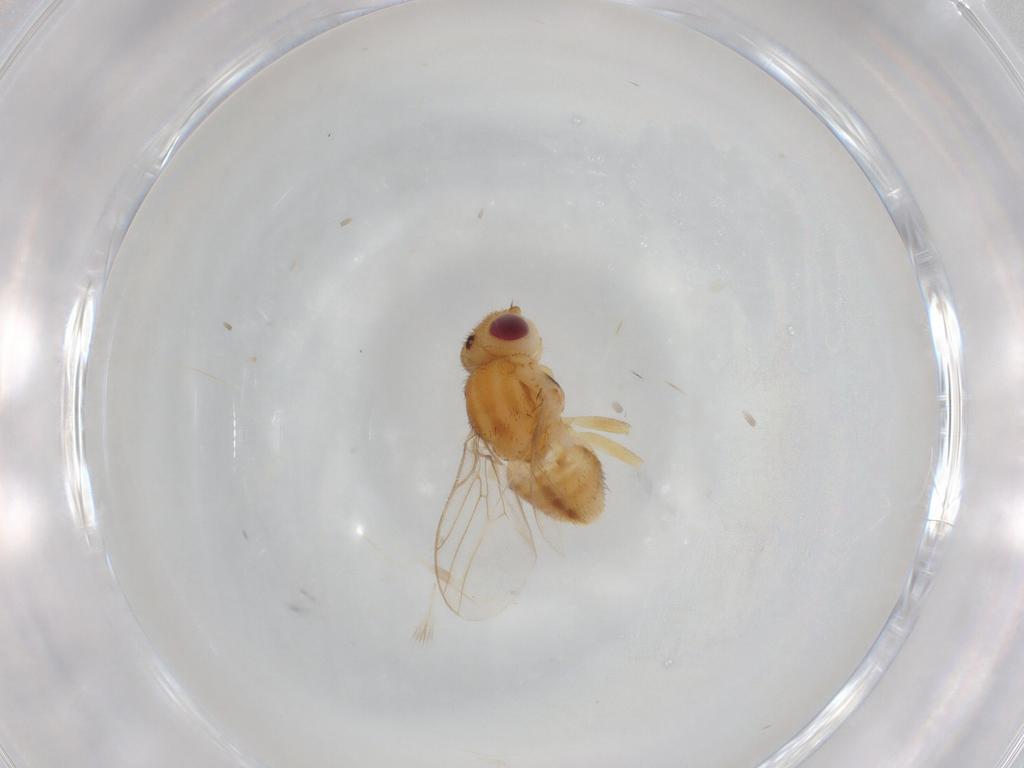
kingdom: Animalia
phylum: Arthropoda
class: Insecta
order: Diptera
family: Chloropidae
